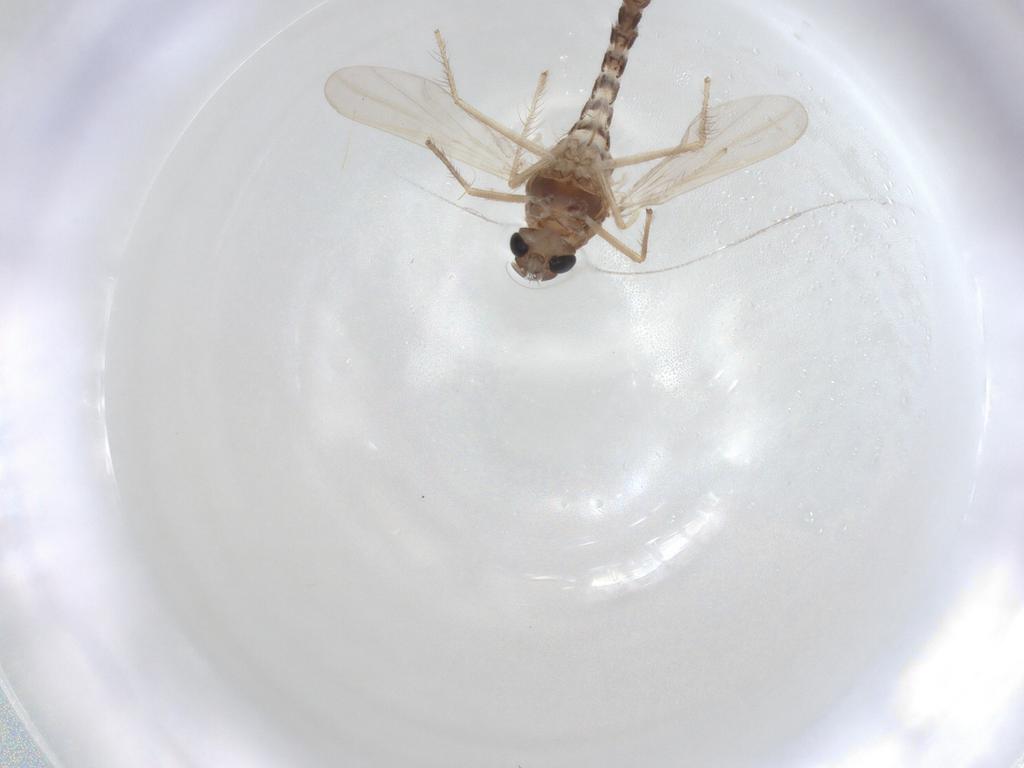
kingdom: Animalia
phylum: Arthropoda
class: Insecta
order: Diptera
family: Chironomidae
